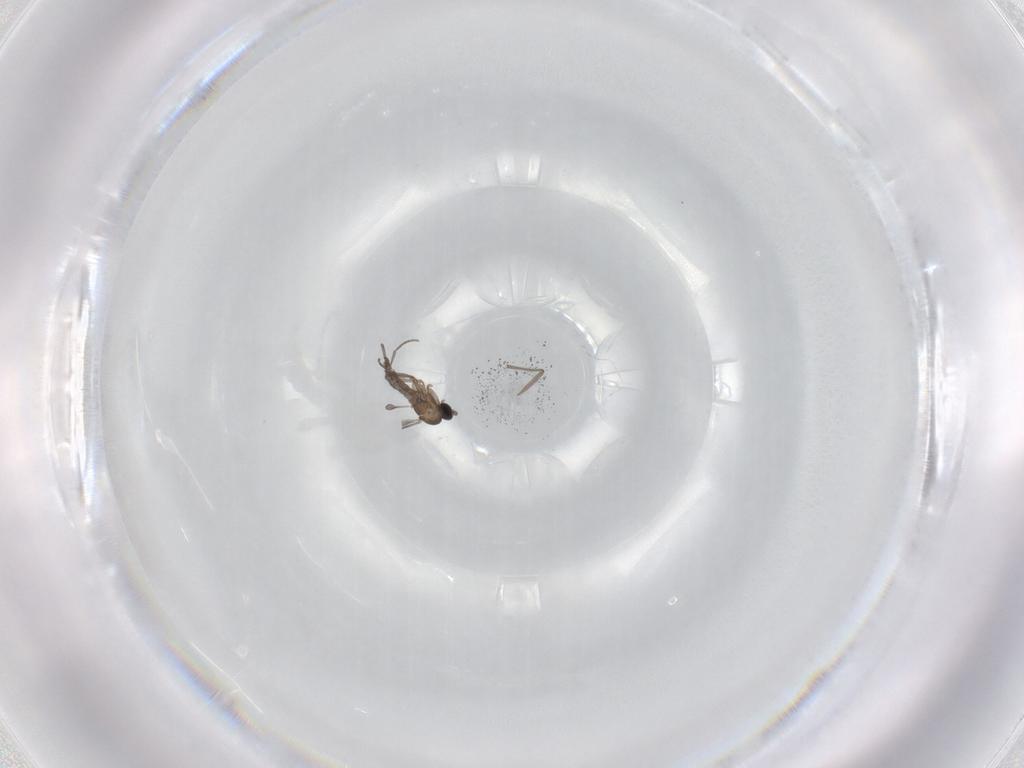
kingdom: Animalia
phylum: Arthropoda
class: Insecta
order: Diptera
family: Sciaridae
